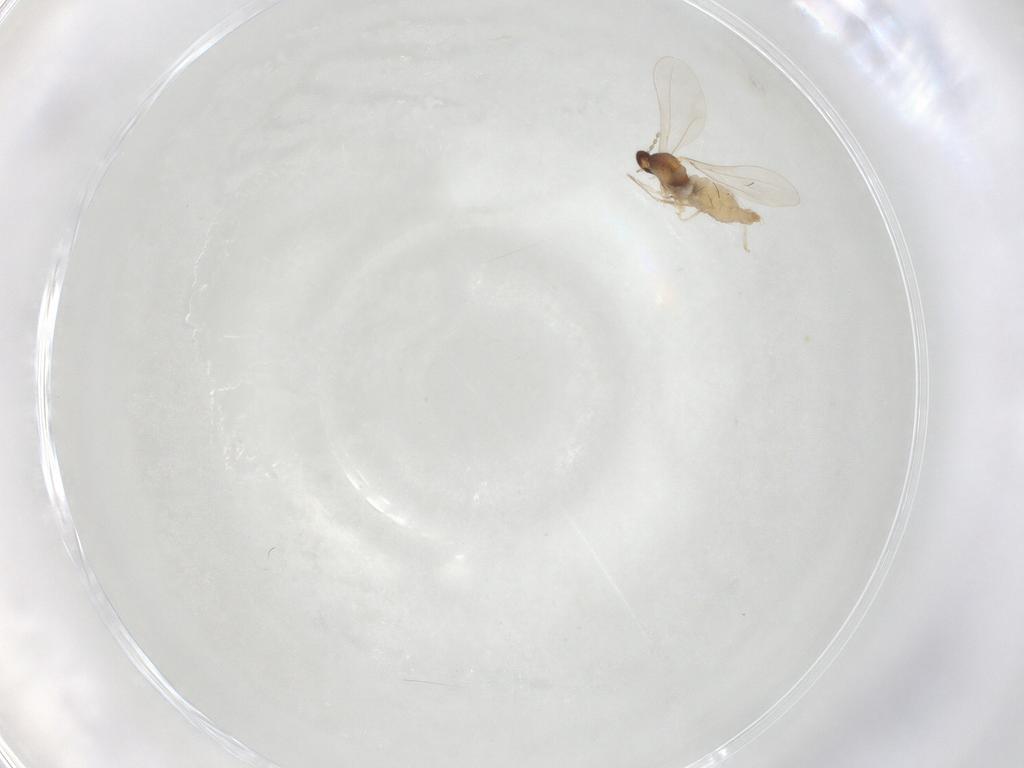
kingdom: Animalia
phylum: Arthropoda
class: Insecta
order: Diptera
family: Cecidomyiidae
